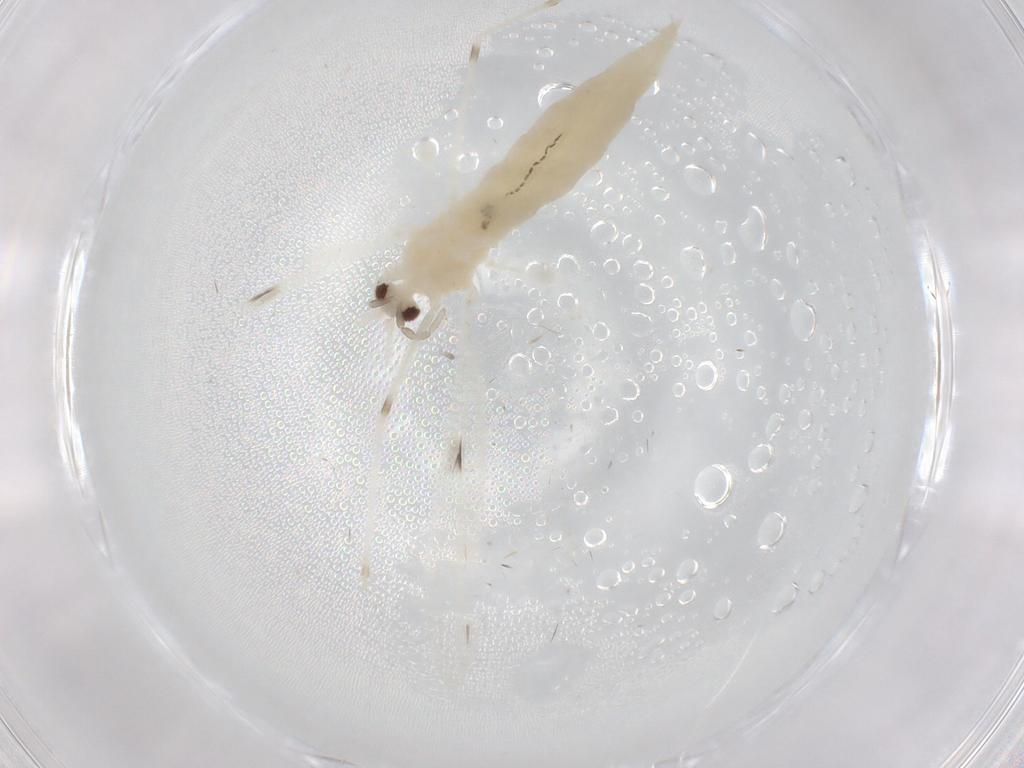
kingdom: Animalia
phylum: Arthropoda
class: Insecta
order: Diptera
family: Cecidomyiidae
